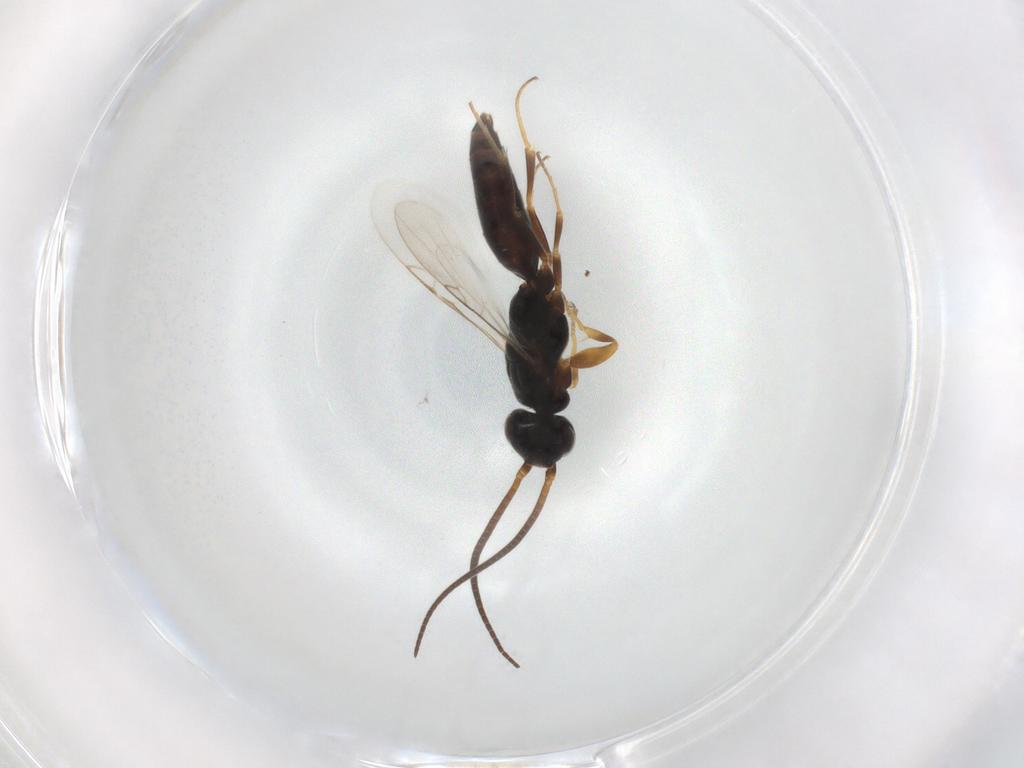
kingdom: Animalia
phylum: Arthropoda
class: Insecta
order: Hymenoptera
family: Sclerogibbidae
